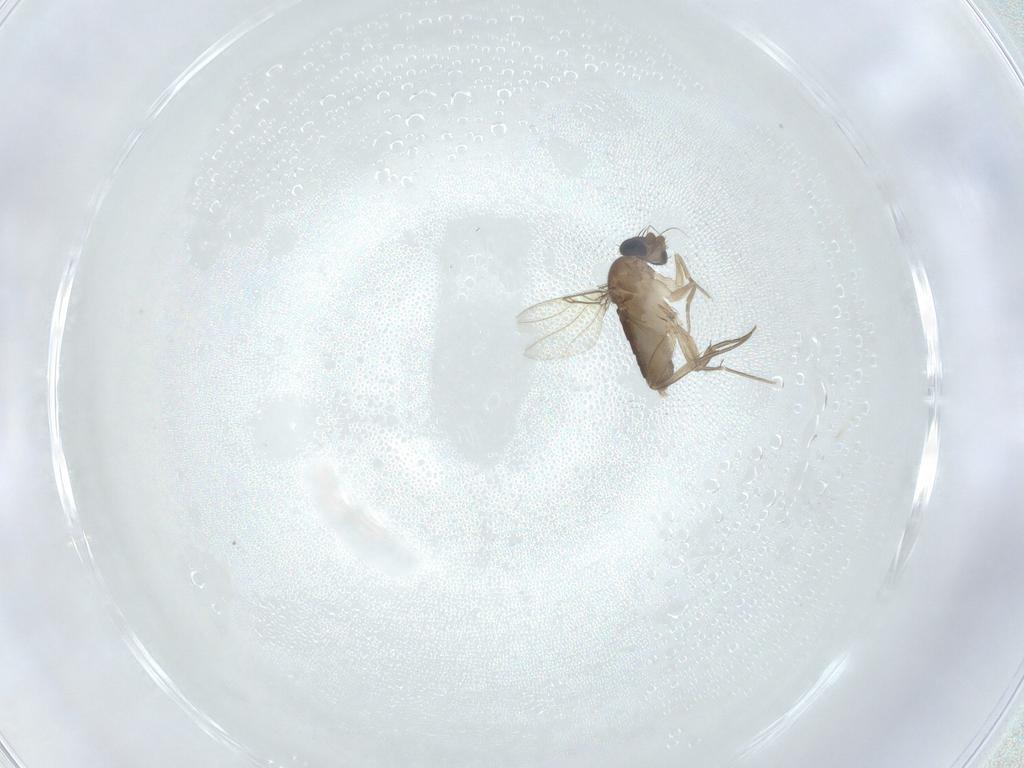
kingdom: Animalia
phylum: Arthropoda
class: Insecta
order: Diptera
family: Phoridae
